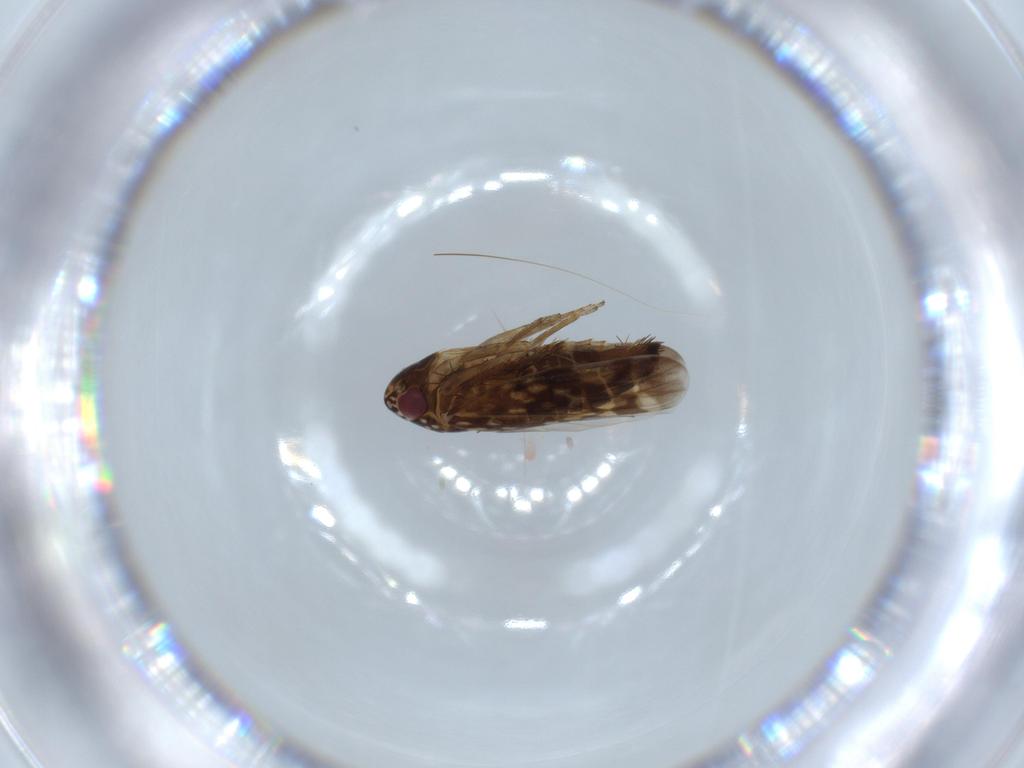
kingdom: Animalia
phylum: Arthropoda
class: Insecta
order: Hemiptera
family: Cicadellidae
